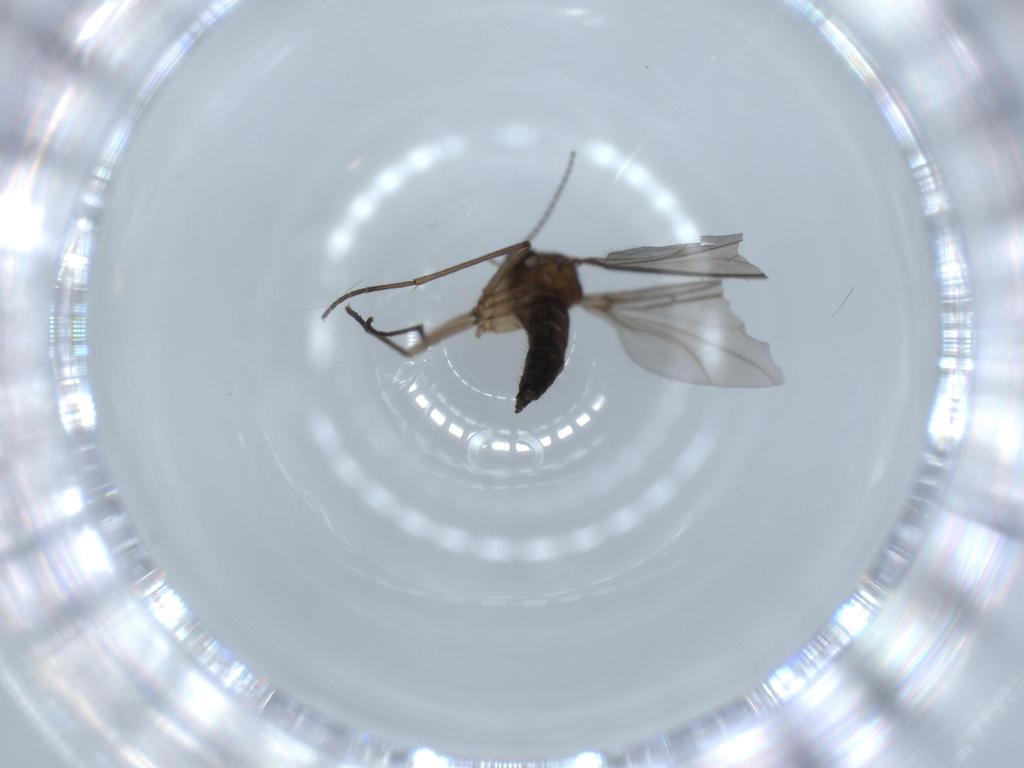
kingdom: Animalia
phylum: Arthropoda
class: Insecta
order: Diptera
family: Sciaridae
